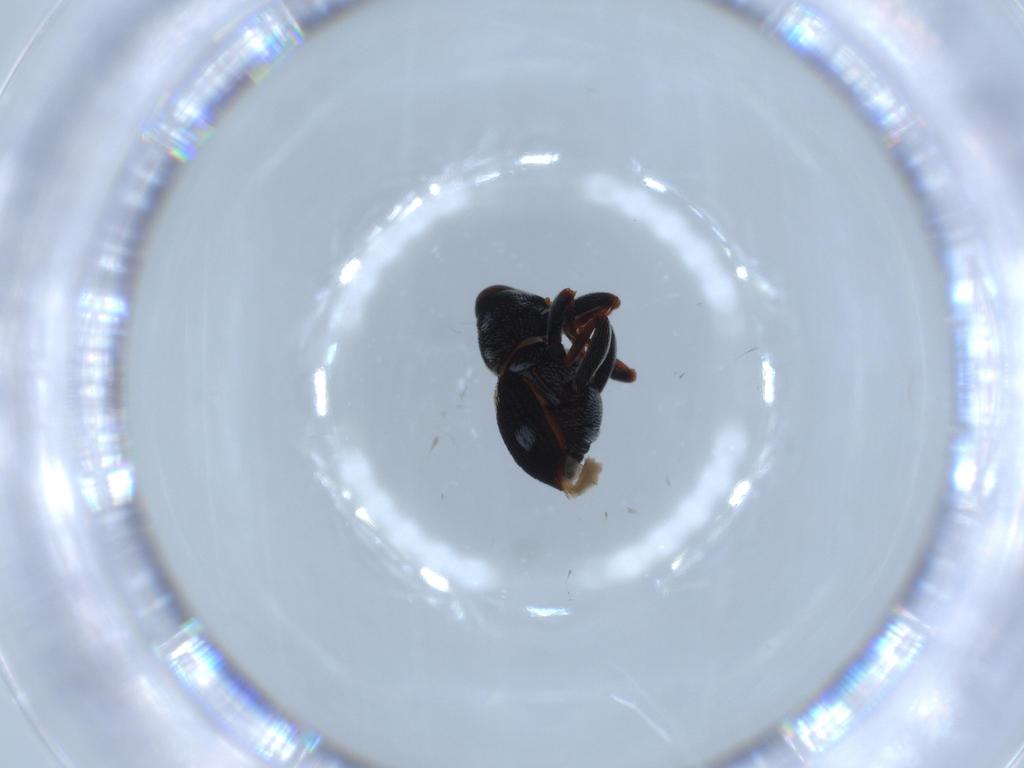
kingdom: Animalia
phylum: Arthropoda
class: Insecta
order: Coleoptera
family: Curculionidae
